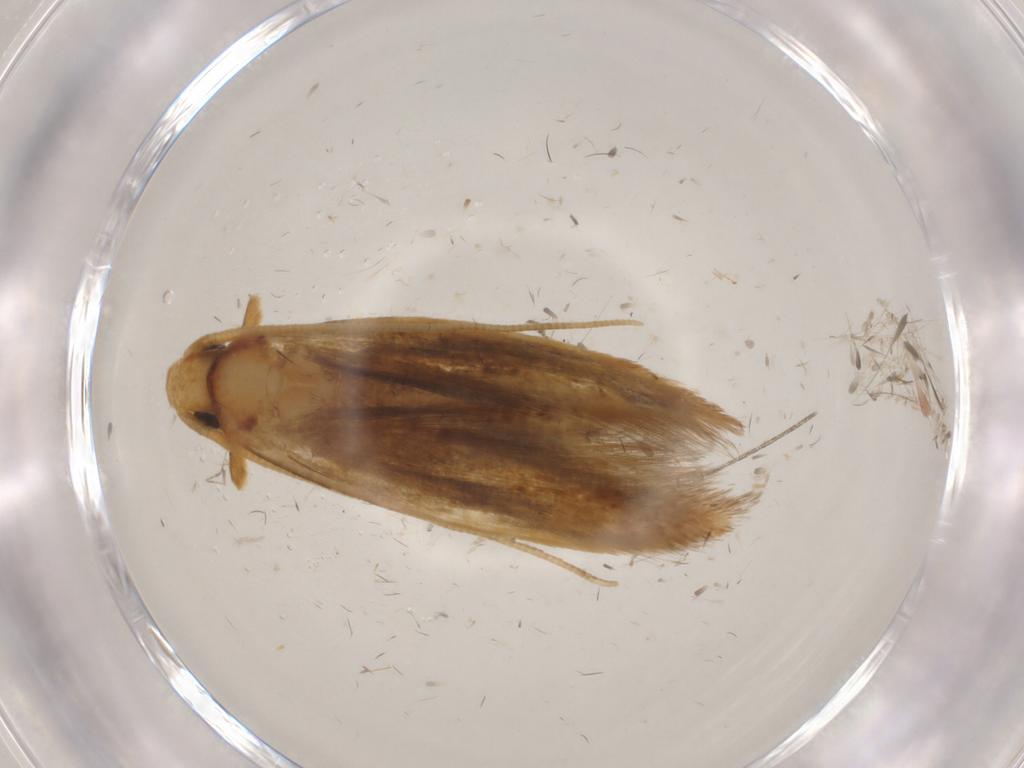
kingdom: Animalia
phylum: Arthropoda
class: Insecta
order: Lepidoptera
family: Tineidae
